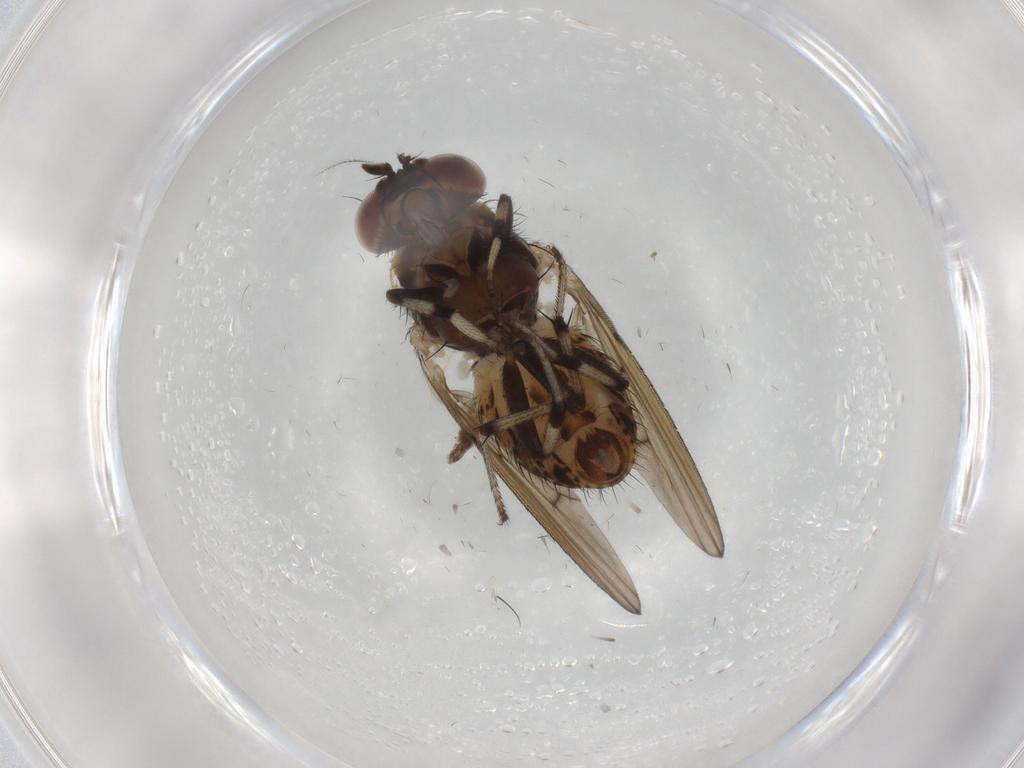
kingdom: Animalia
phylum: Arthropoda
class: Insecta
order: Diptera
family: Cecidomyiidae
